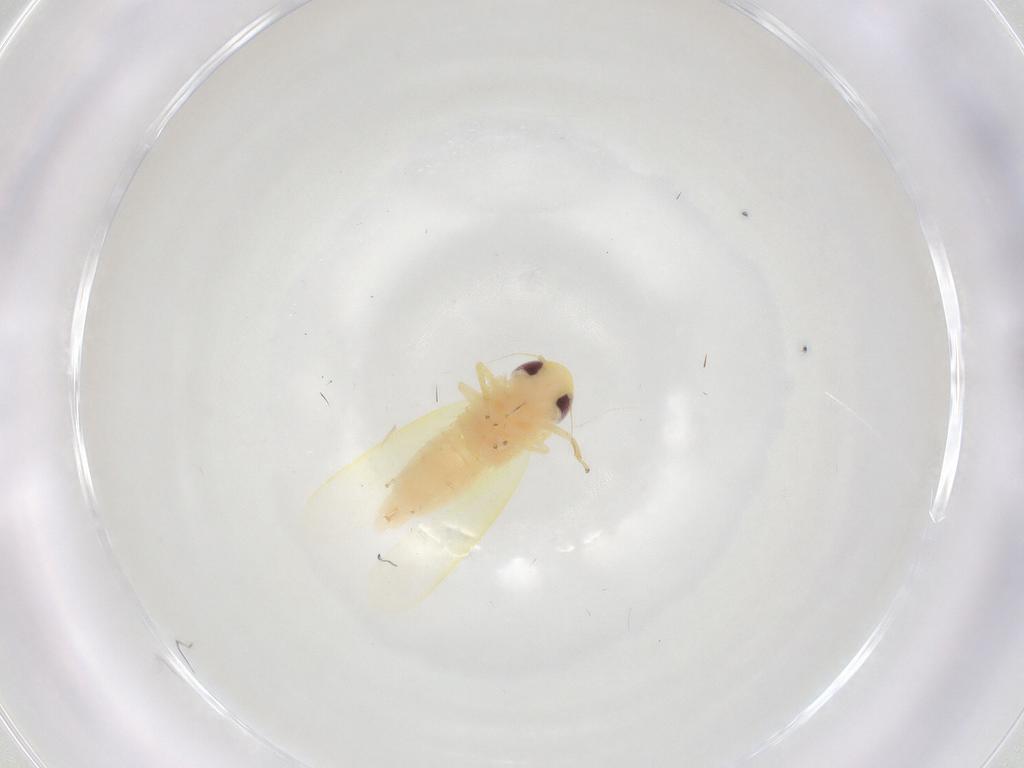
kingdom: Animalia
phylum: Arthropoda
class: Insecta
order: Hemiptera
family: Cicadellidae
